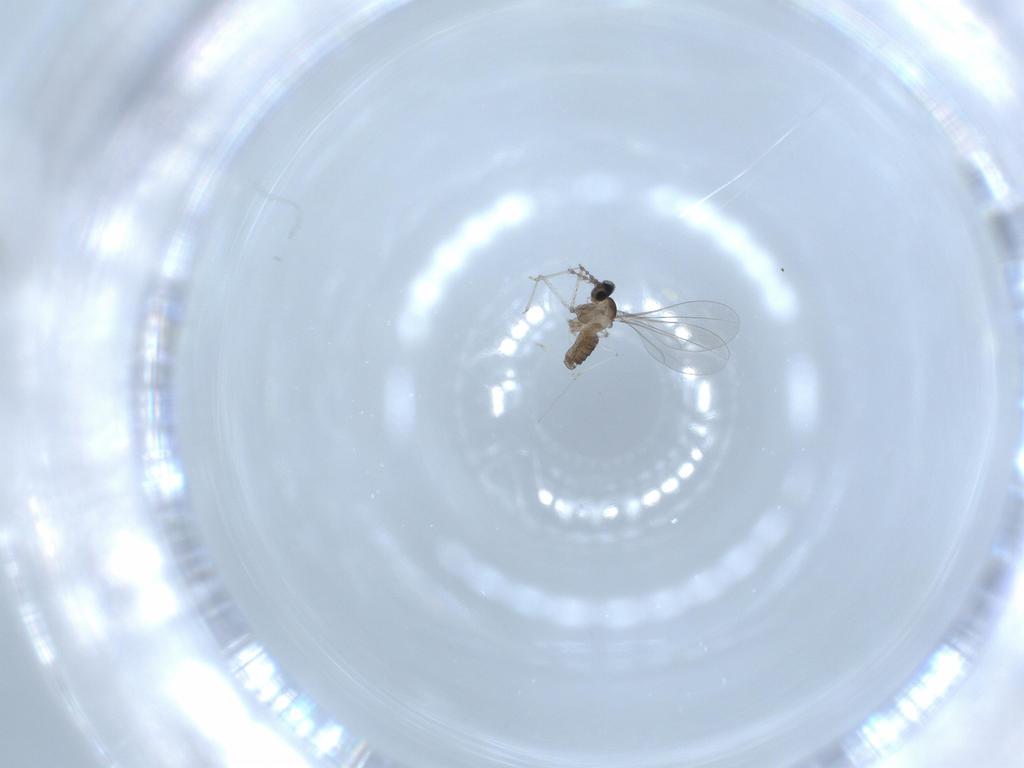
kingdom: Animalia
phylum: Arthropoda
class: Insecta
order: Diptera
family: Cecidomyiidae
